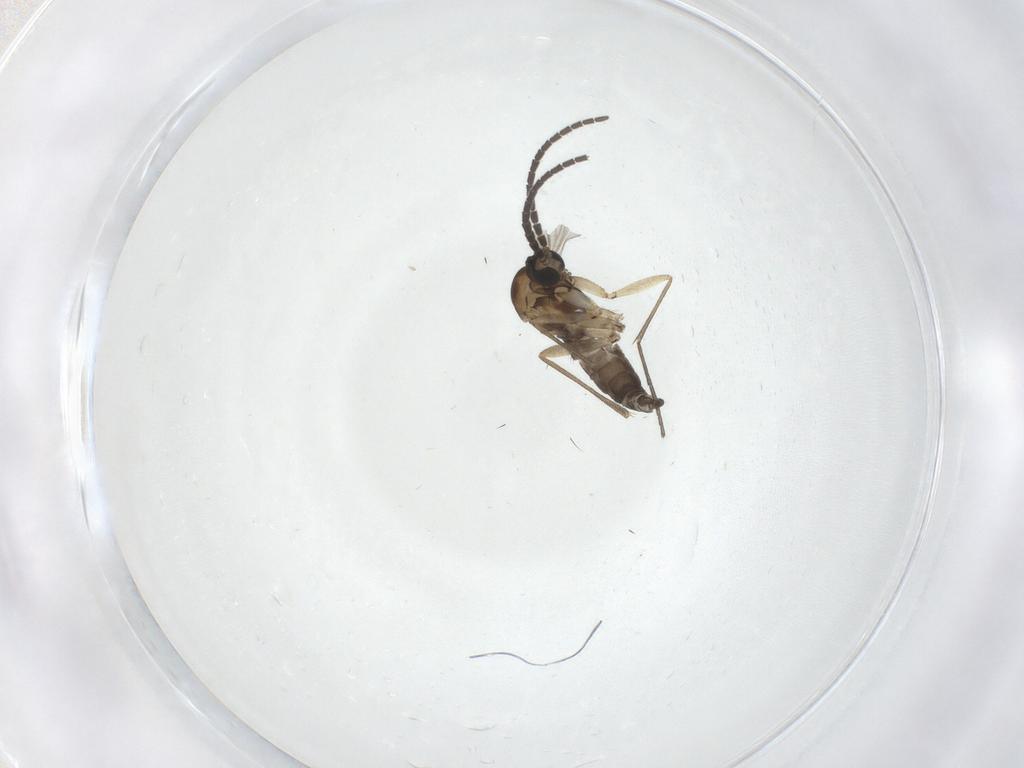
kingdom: Animalia
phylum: Arthropoda
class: Insecta
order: Diptera
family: Sciaridae
